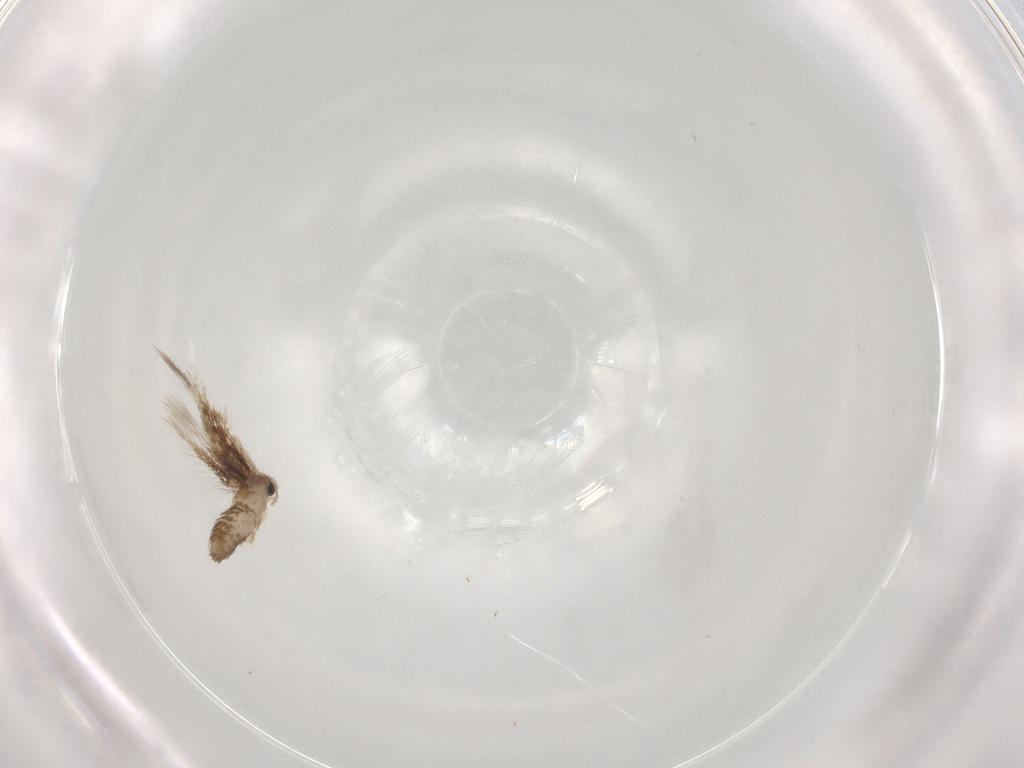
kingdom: Animalia
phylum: Arthropoda
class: Insecta
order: Lepidoptera
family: Nepticulidae
